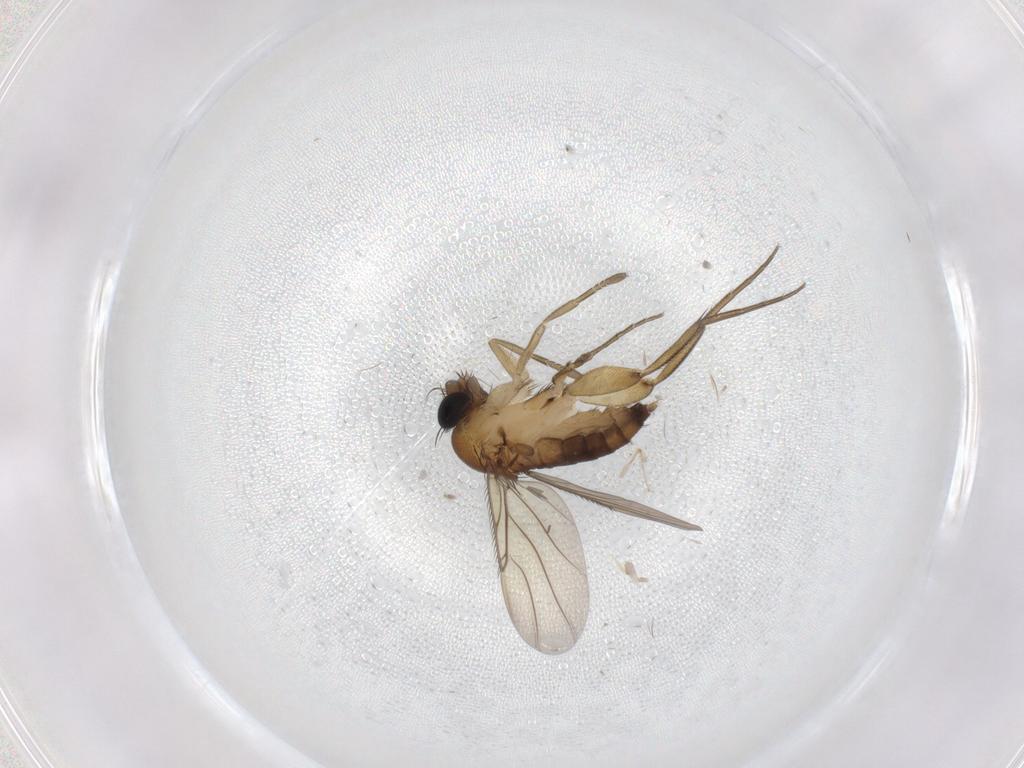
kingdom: Animalia
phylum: Arthropoda
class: Insecta
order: Diptera
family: Phoridae
